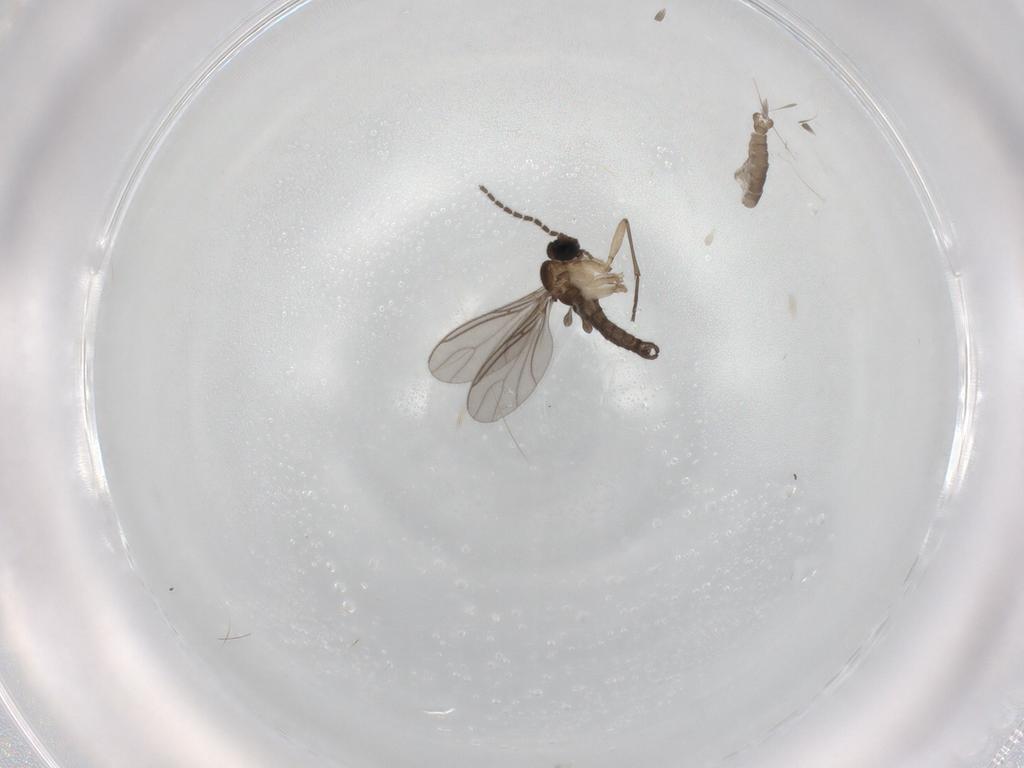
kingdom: Animalia
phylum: Arthropoda
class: Insecta
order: Diptera
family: Sciaridae
